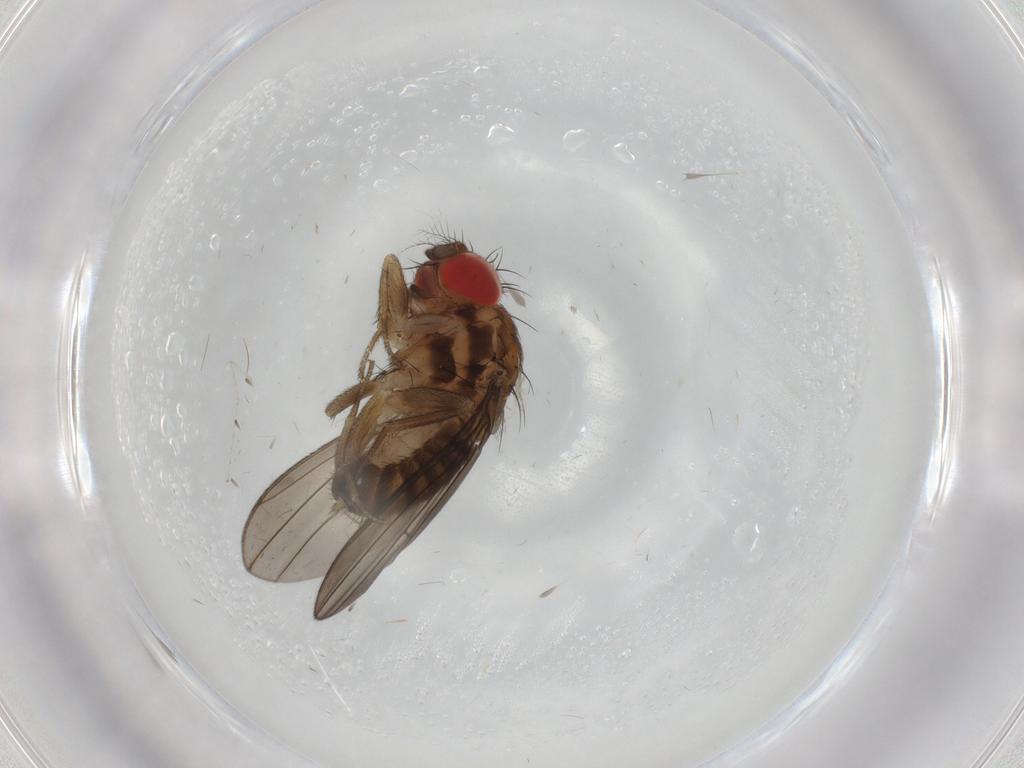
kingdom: Animalia
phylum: Arthropoda
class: Insecta
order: Diptera
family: Drosophilidae
